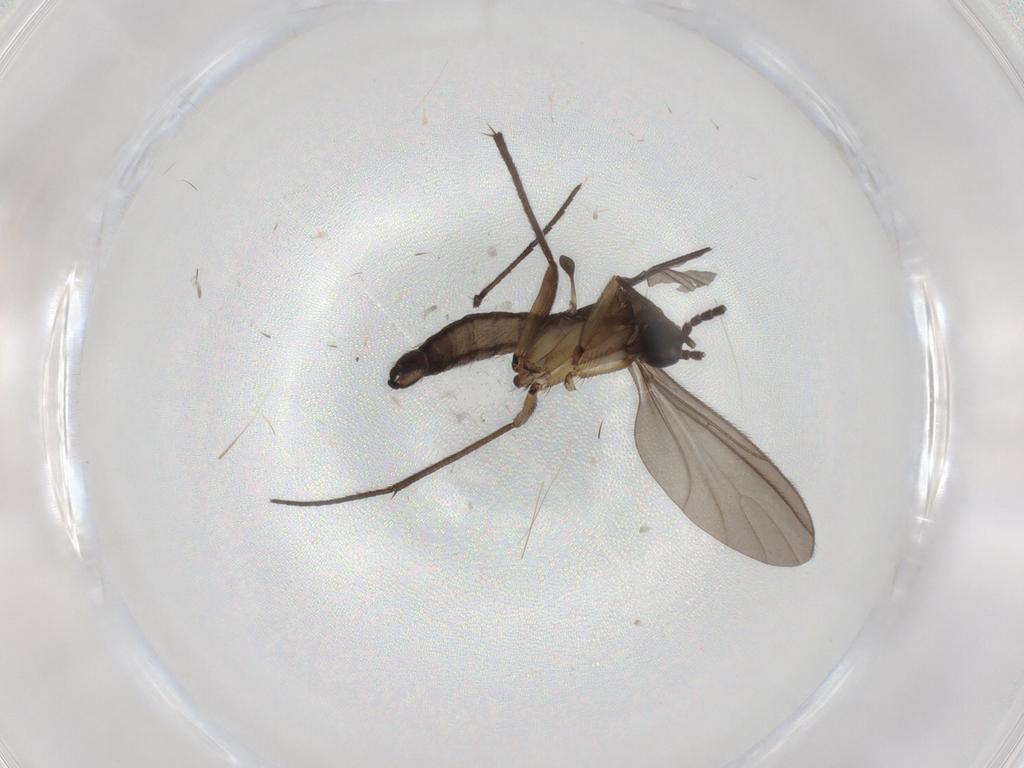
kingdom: Animalia
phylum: Arthropoda
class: Insecta
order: Diptera
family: Sciaridae
